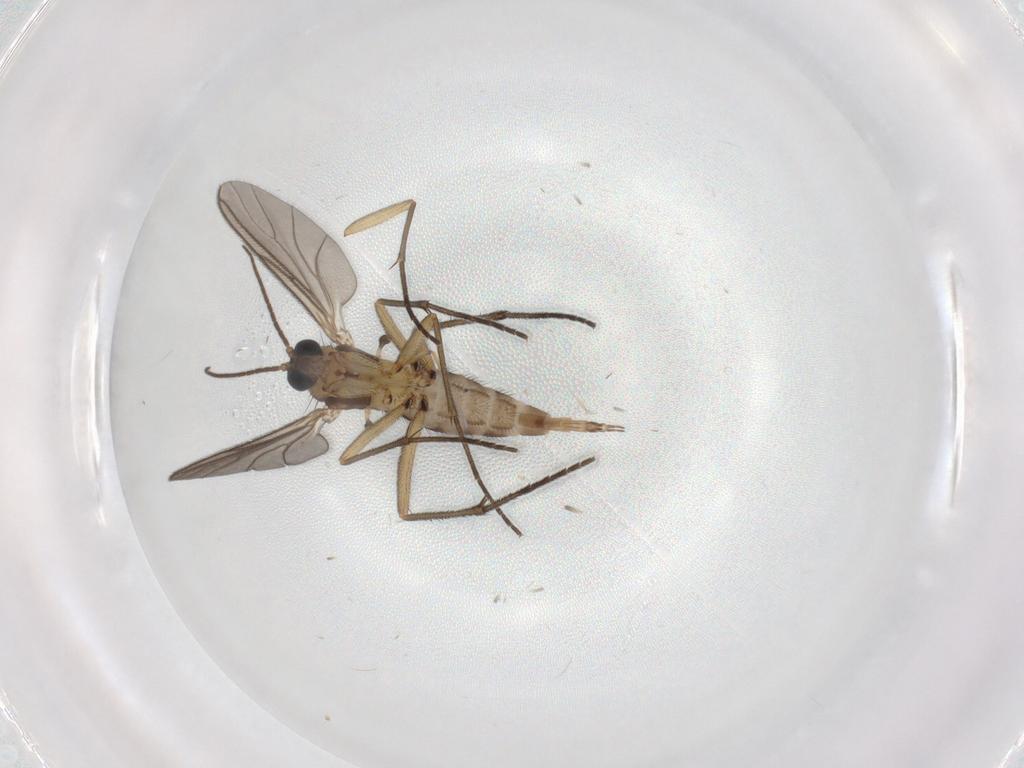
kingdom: Animalia
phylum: Arthropoda
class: Insecta
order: Diptera
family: Sciaridae
